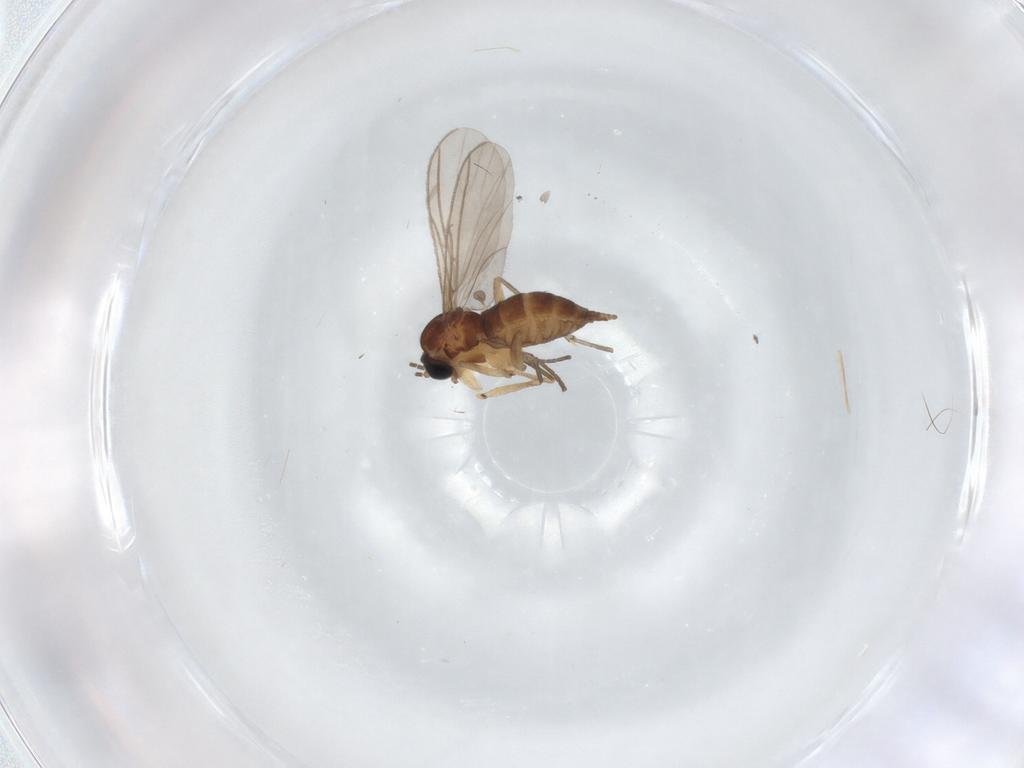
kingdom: Animalia
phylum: Arthropoda
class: Insecta
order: Diptera
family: Sciaridae
